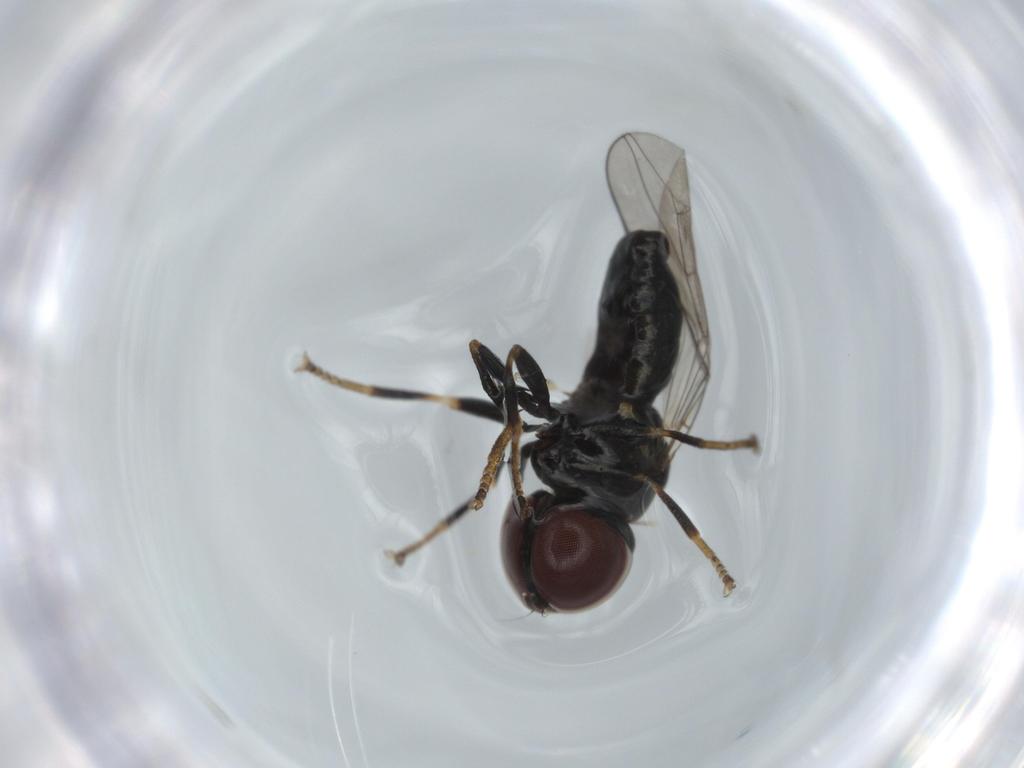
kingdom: Animalia
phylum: Arthropoda
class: Insecta
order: Diptera
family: Pipunculidae
